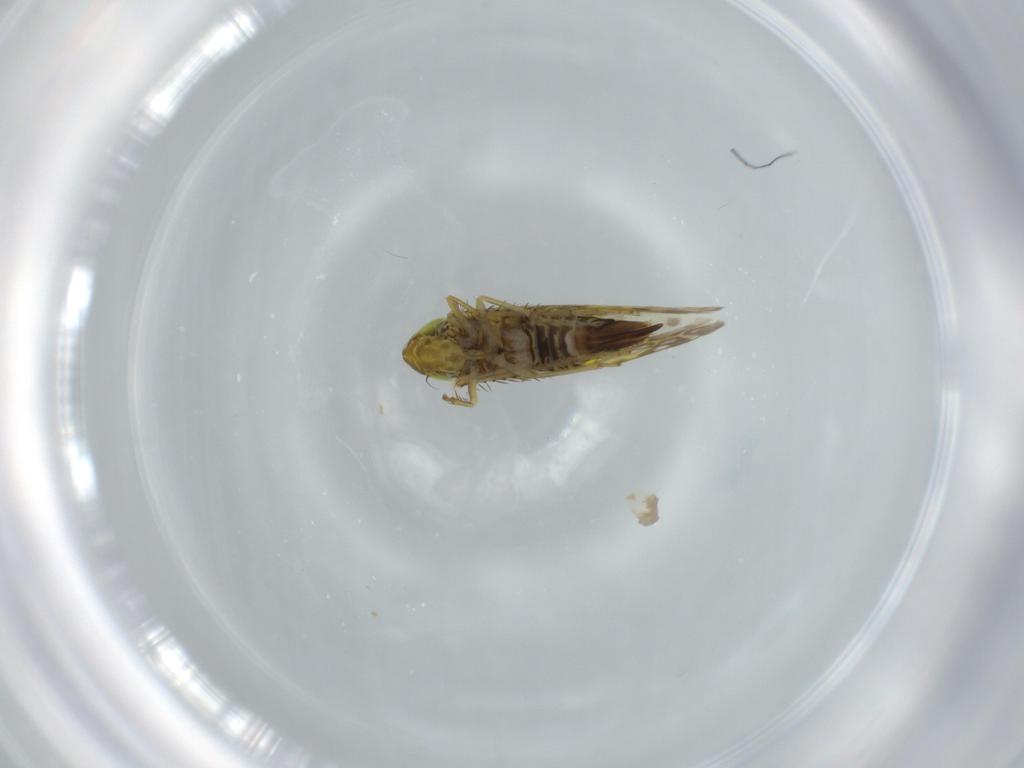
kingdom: Animalia
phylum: Arthropoda
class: Insecta
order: Hemiptera
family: Cicadellidae
